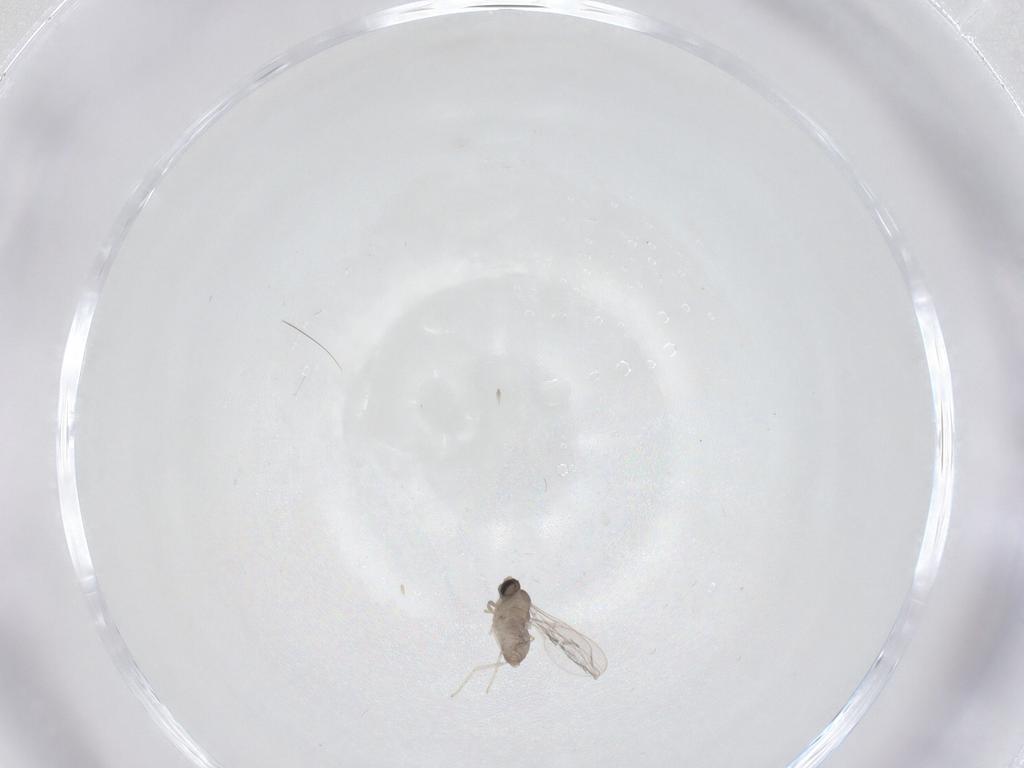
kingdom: Animalia
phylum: Arthropoda
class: Insecta
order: Diptera
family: Cecidomyiidae
